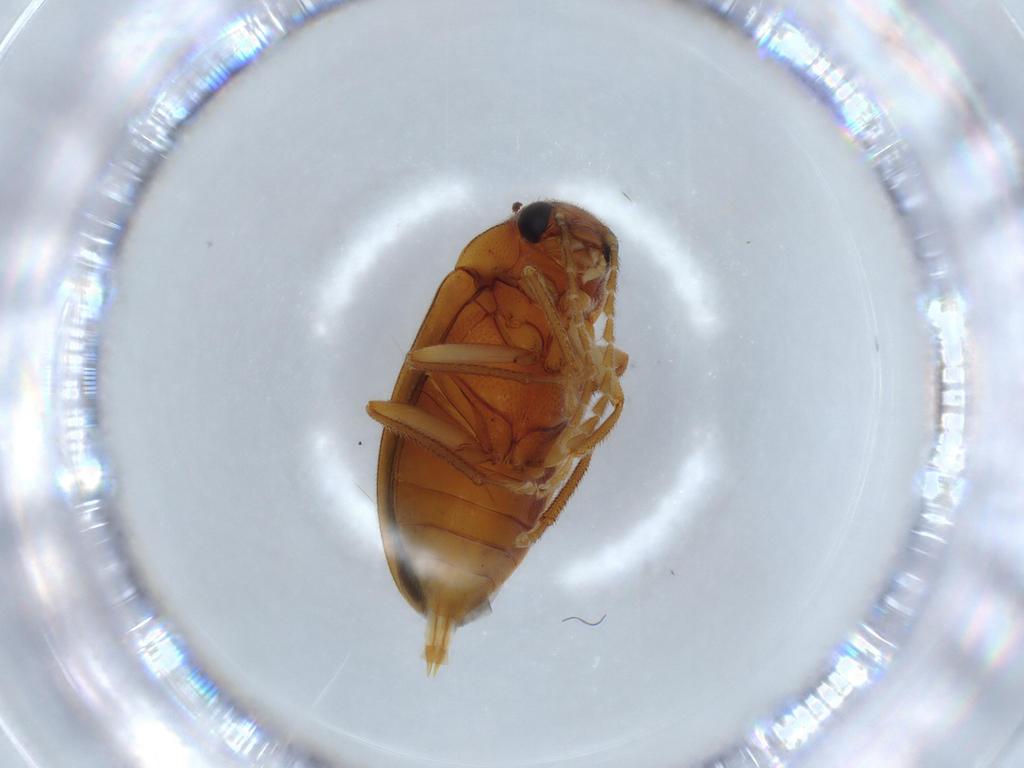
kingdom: Animalia
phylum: Arthropoda
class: Insecta
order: Coleoptera
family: Ptilodactylidae
